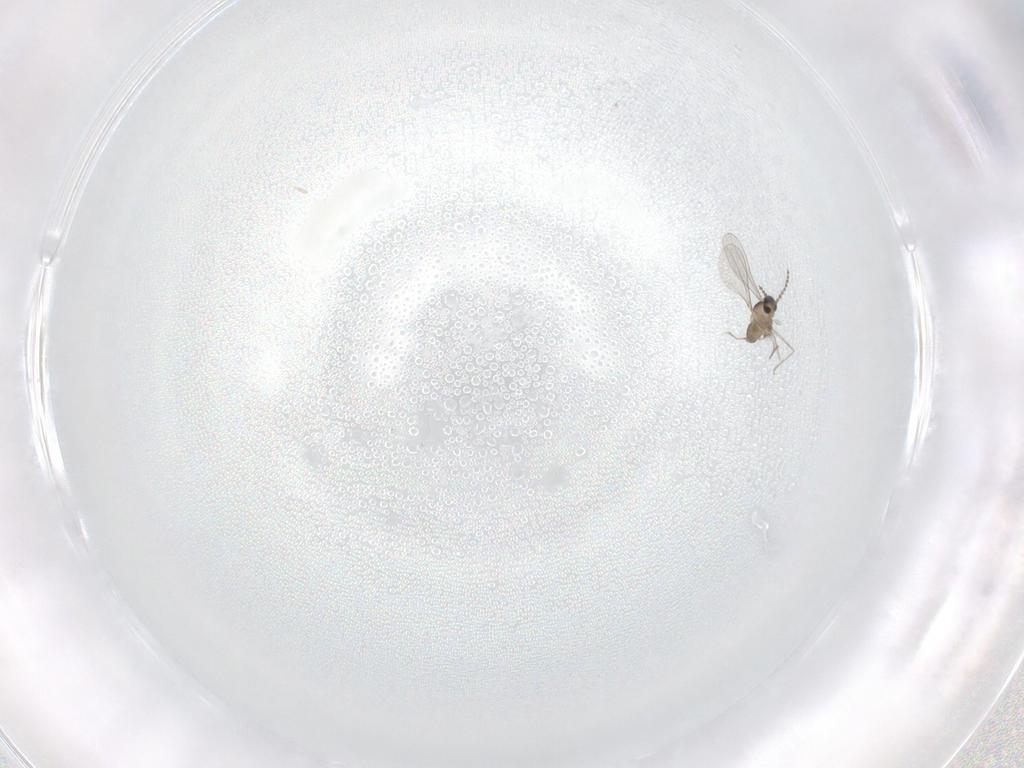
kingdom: Animalia
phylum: Arthropoda
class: Insecta
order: Diptera
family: Cecidomyiidae
